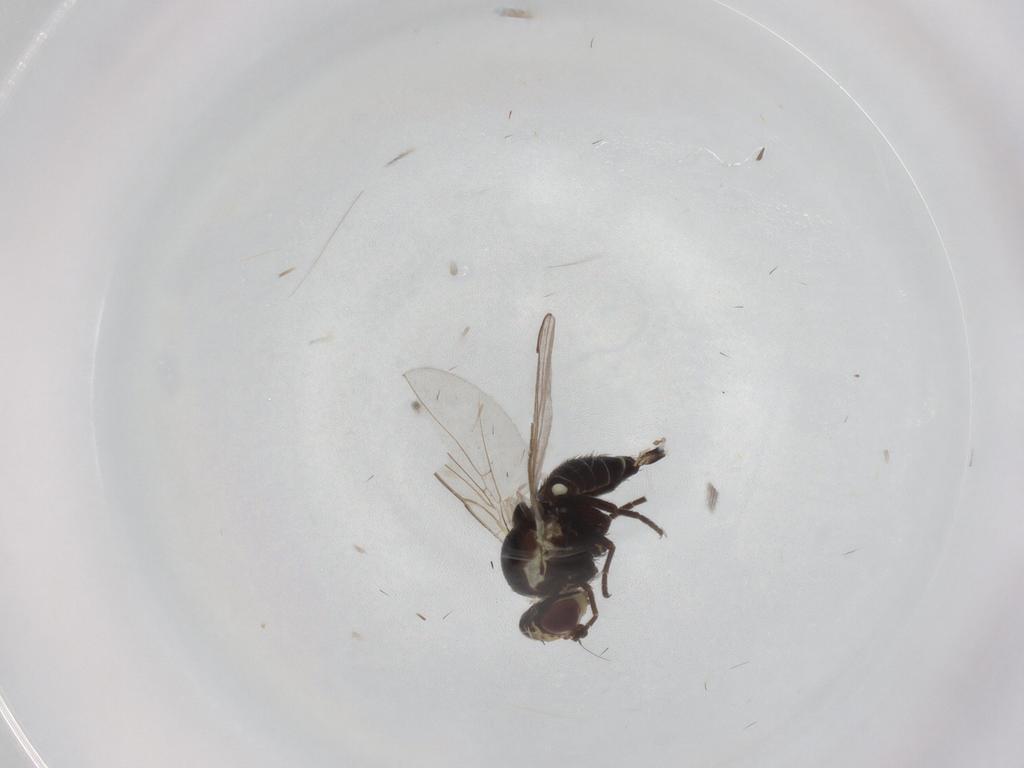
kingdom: Animalia
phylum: Arthropoda
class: Insecta
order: Diptera
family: Agromyzidae
